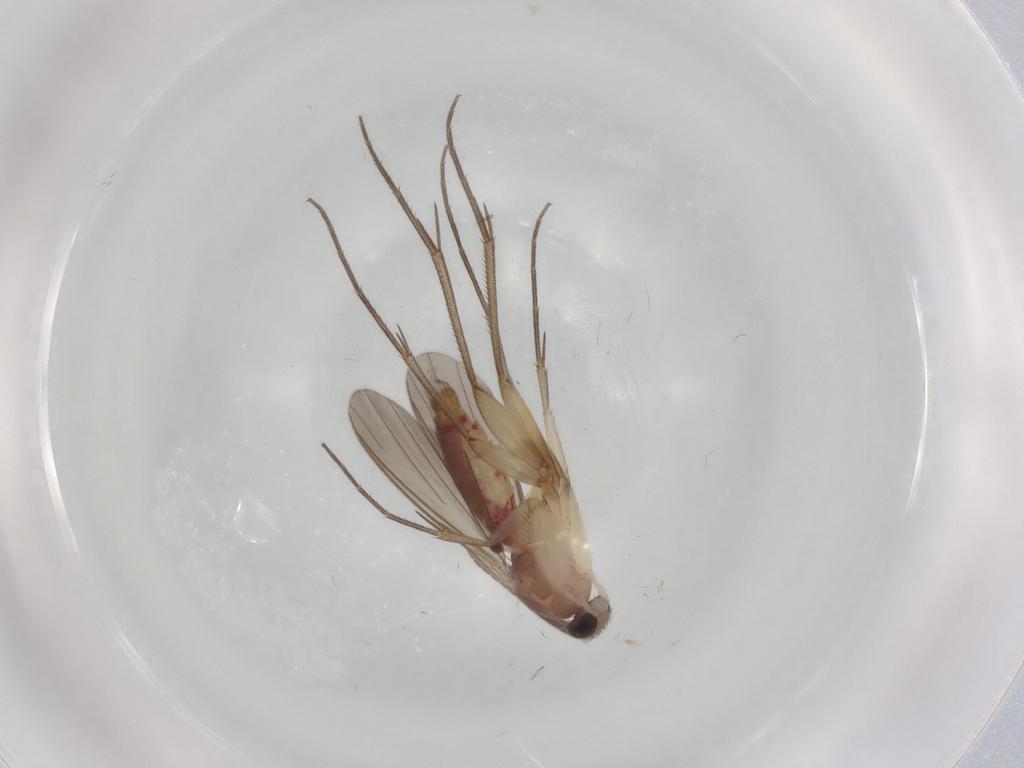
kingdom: Animalia
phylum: Arthropoda
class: Insecta
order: Diptera
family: Mycetophilidae
